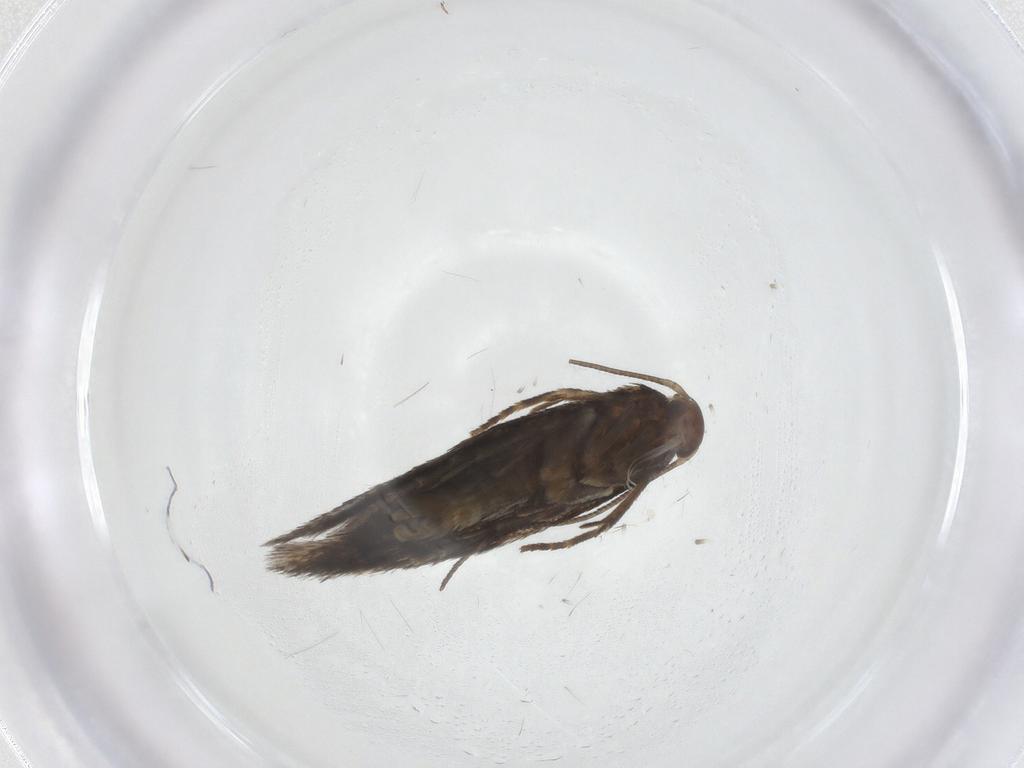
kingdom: Animalia
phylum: Arthropoda
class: Insecta
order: Lepidoptera
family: Elachistidae
